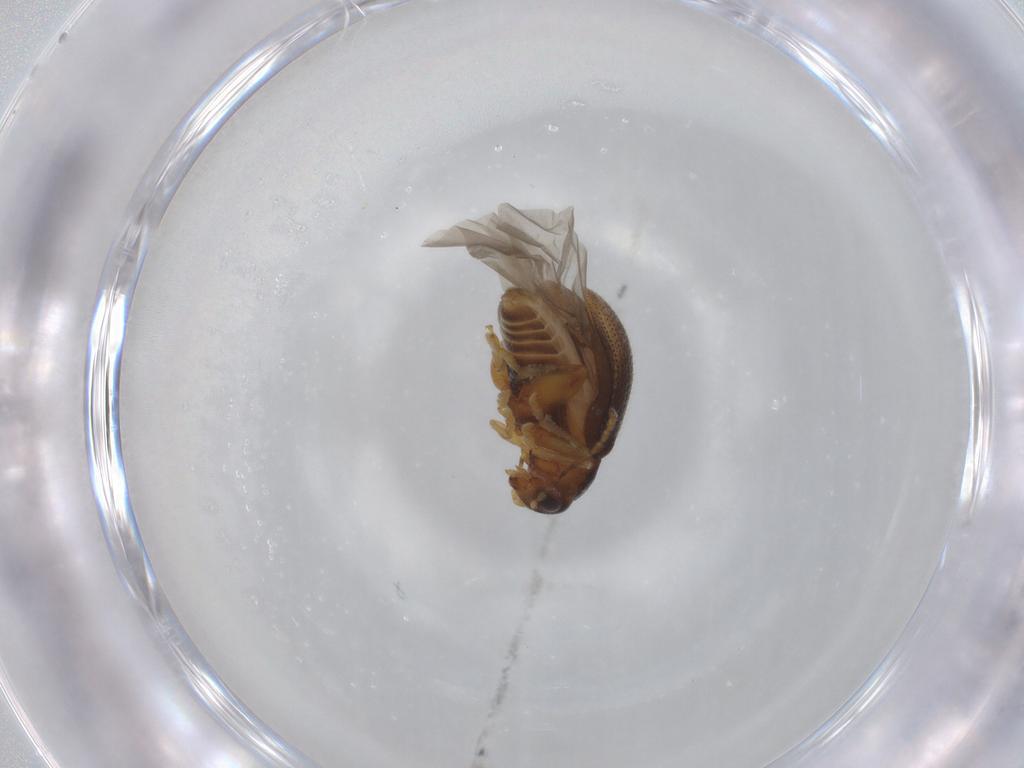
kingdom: Animalia
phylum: Arthropoda
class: Insecta
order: Coleoptera
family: Chrysomelidae
